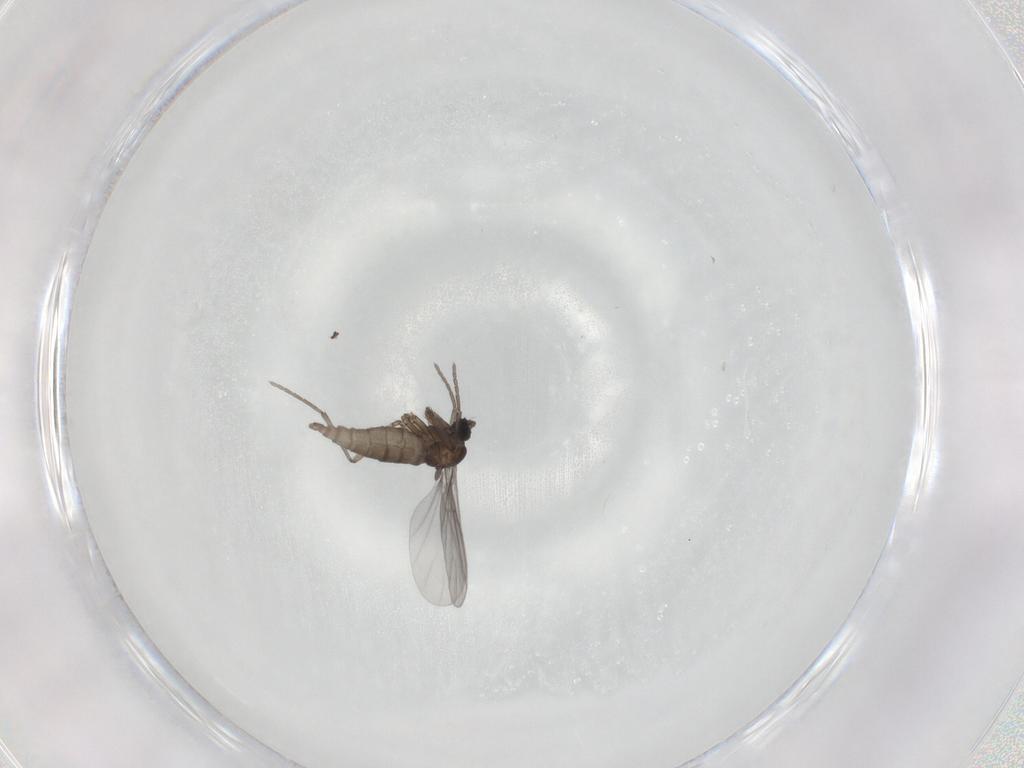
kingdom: Animalia
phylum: Arthropoda
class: Insecta
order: Diptera
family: Sciaridae
